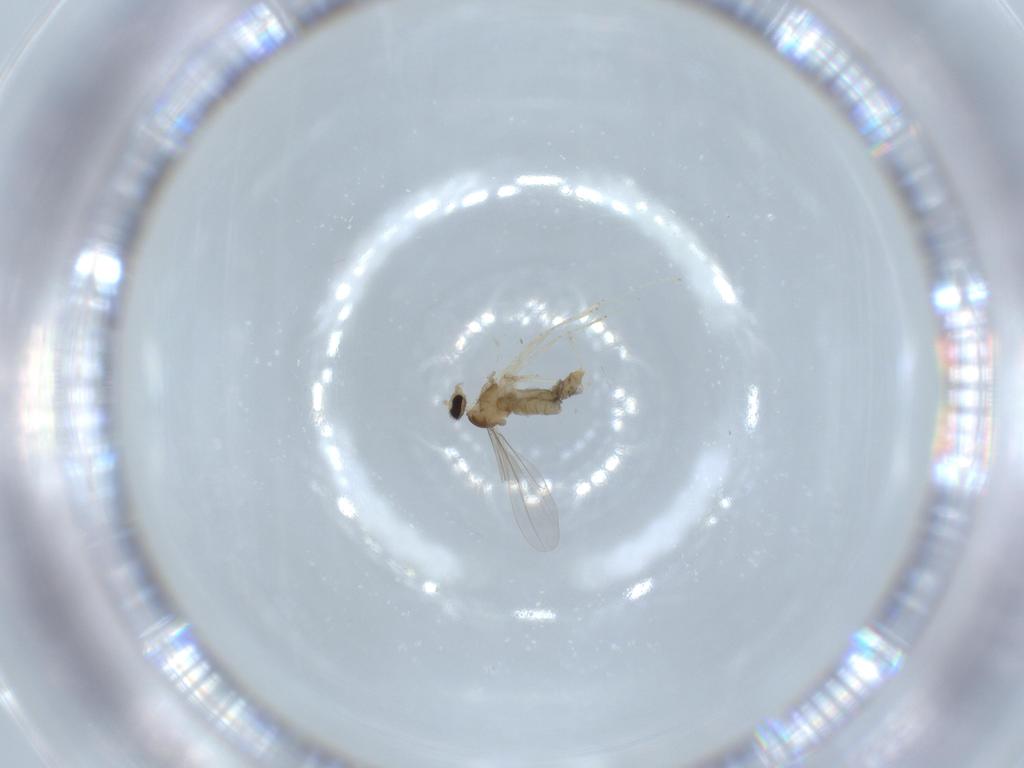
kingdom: Animalia
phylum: Arthropoda
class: Insecta
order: Diptera
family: Cecidomyiidae
